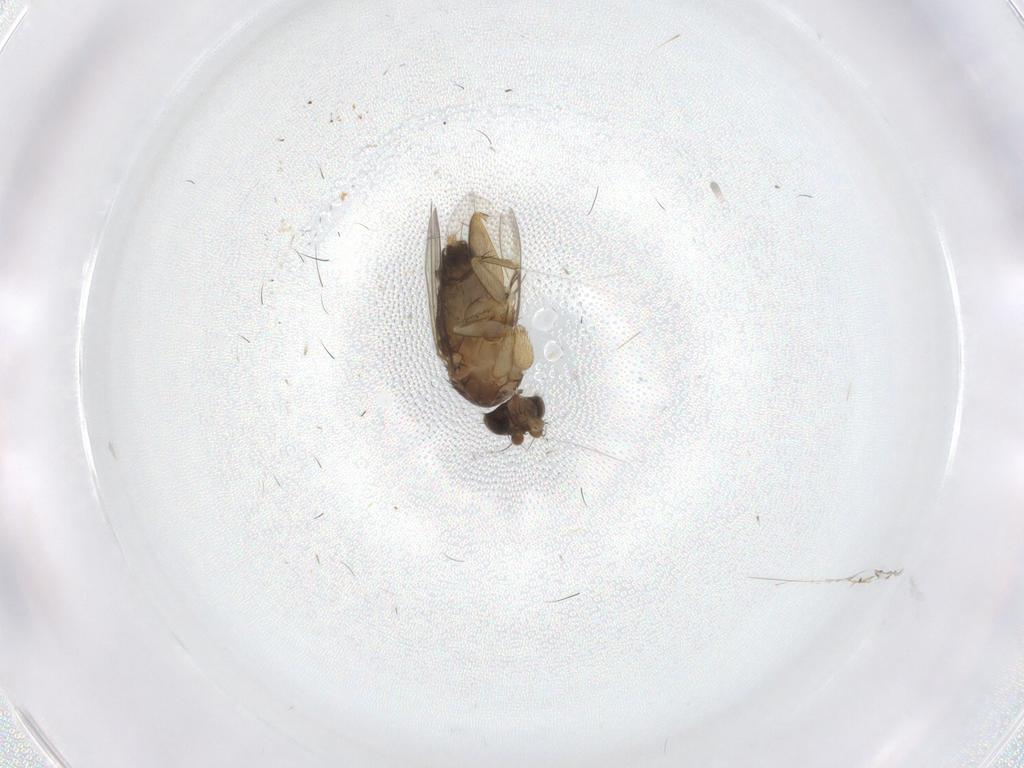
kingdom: Animalia
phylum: Arthropoda
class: Insecta
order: Diptera
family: Phoridae
